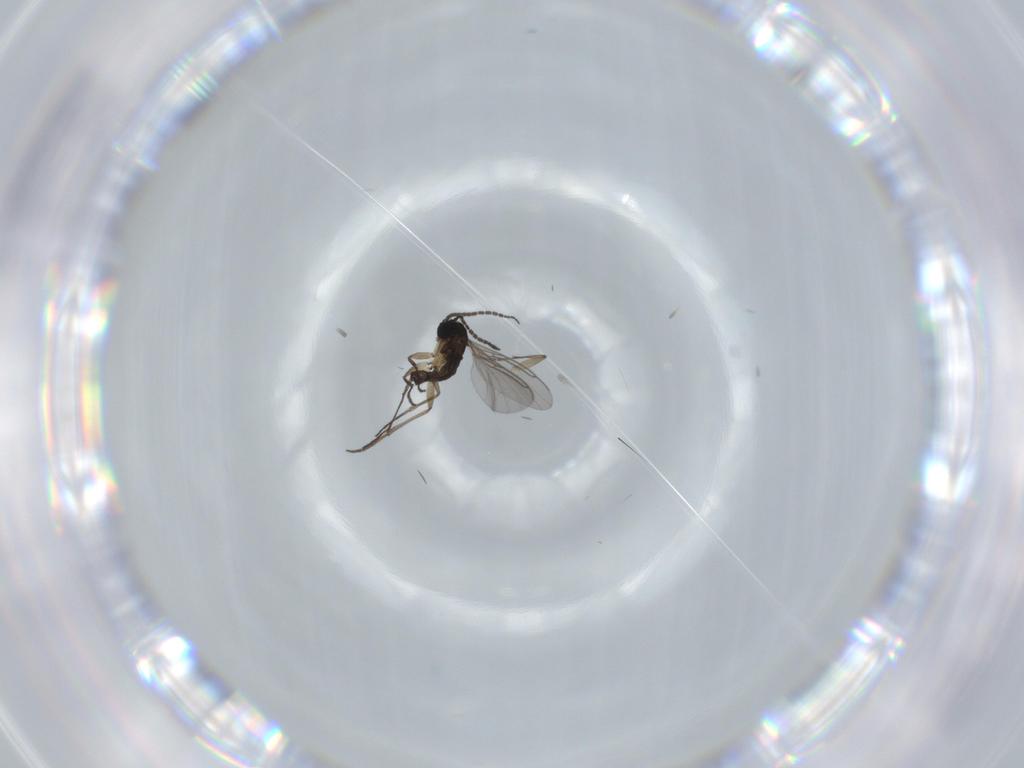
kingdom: Animalia
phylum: Arthropoda
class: Insecta
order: Diptera
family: Sciaridae
